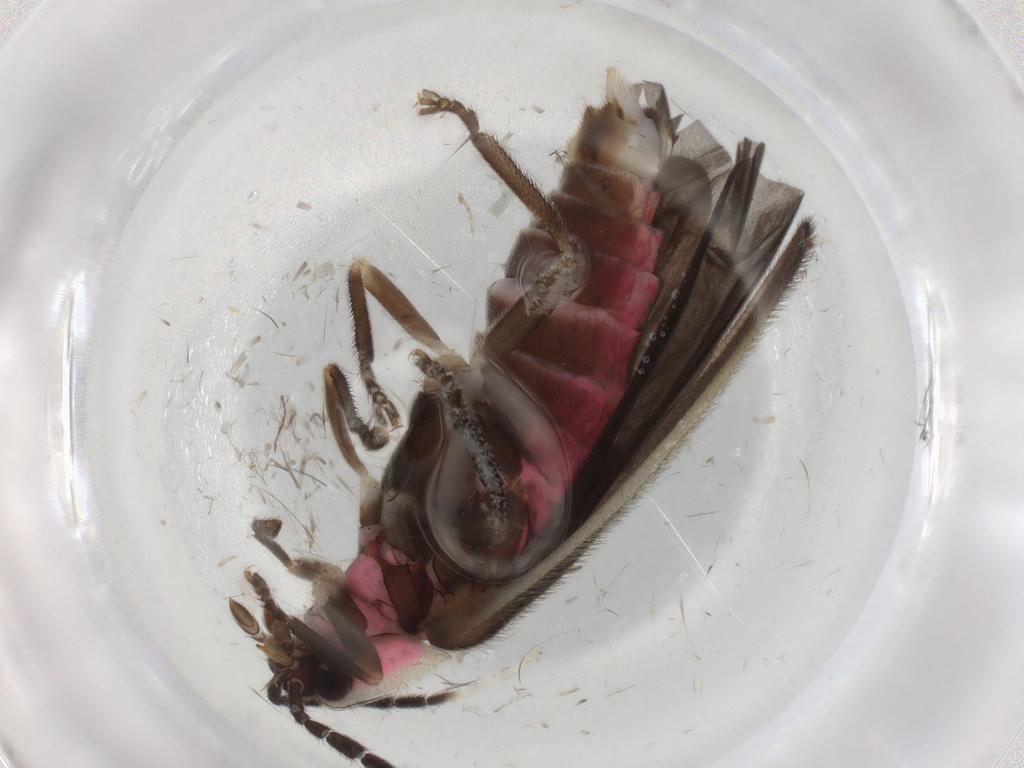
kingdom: Animalia
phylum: Arthropoda
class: Insecta
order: Coleoptera
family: Lampyridae
